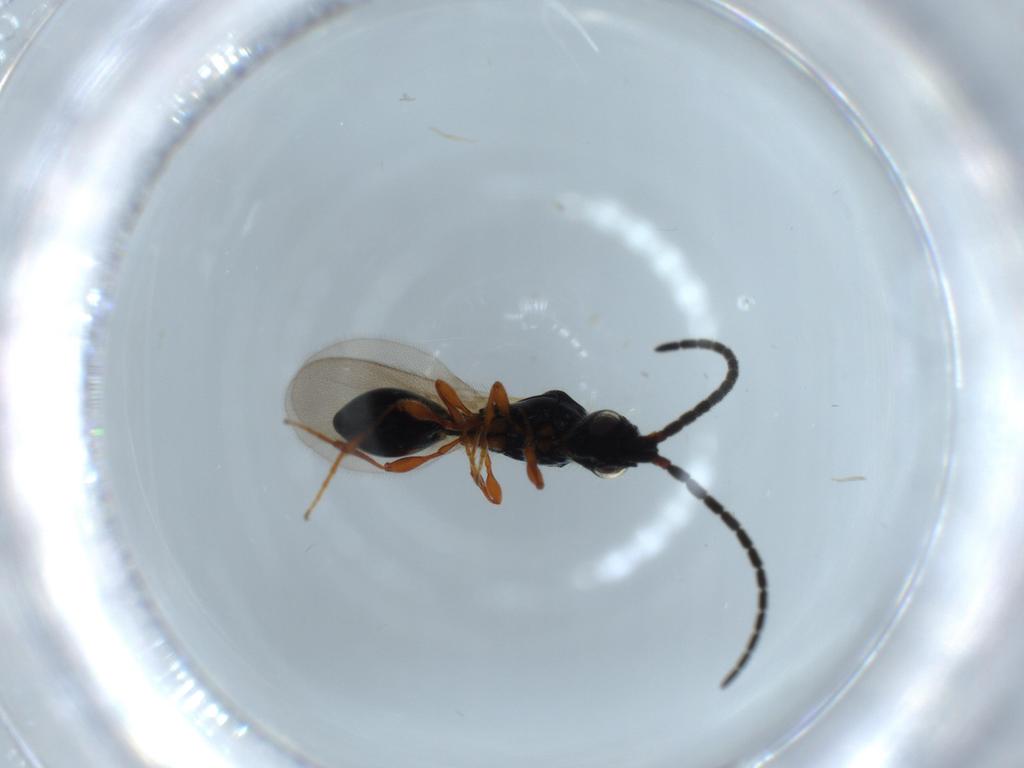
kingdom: Animalia
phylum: Arthropoda
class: Insecta
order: Hymenoptera
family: Diapriidae
